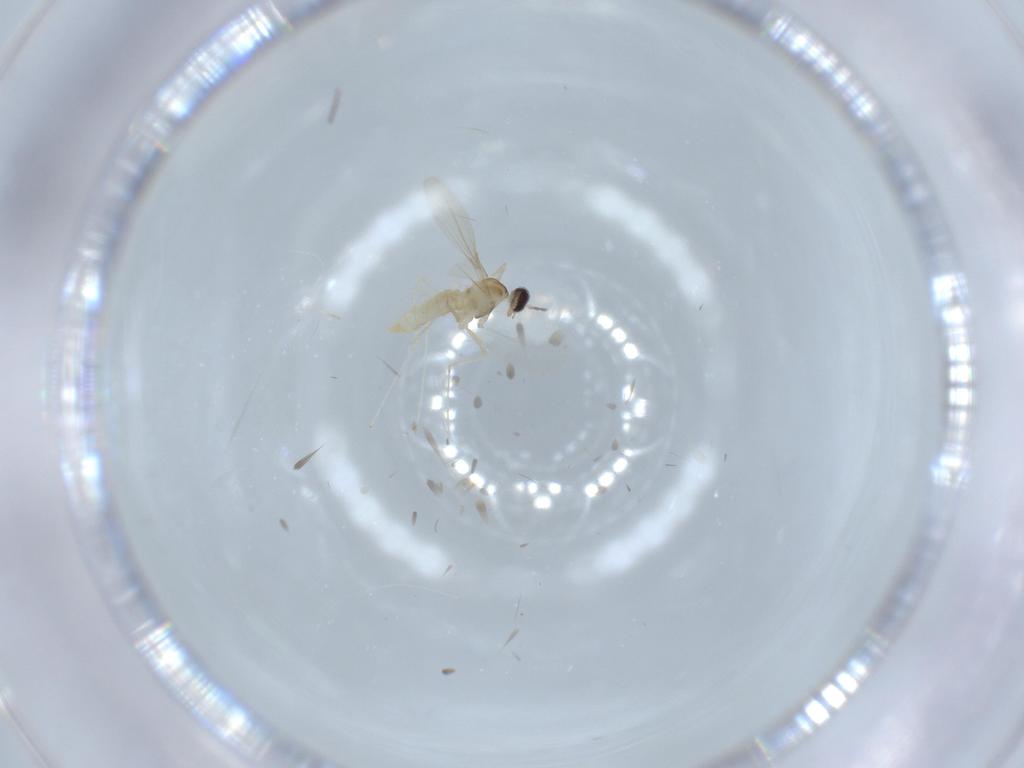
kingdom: Animalia
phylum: Arthropoda
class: Insecta
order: Diptera
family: Cecidomyiidae
